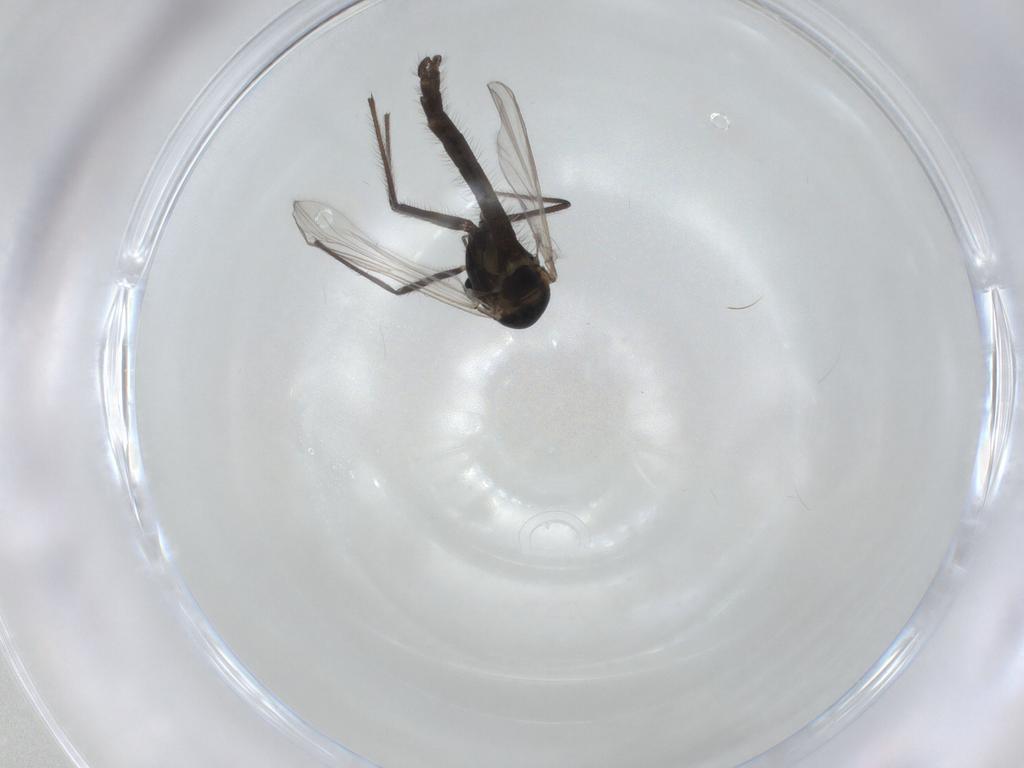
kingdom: Animalia
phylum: Arthropoda
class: Insecta
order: Diptera
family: Chironomidae
